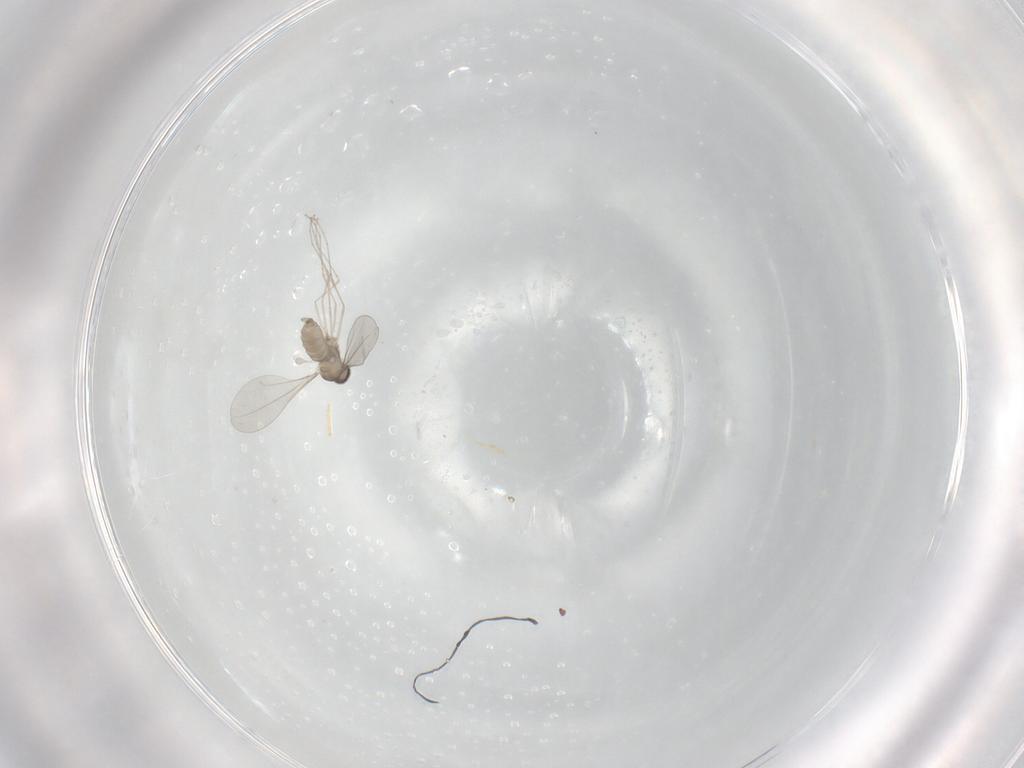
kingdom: Animalia
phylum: Arthropoda
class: Insecta
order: Diptera
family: Cecidomyiidae
